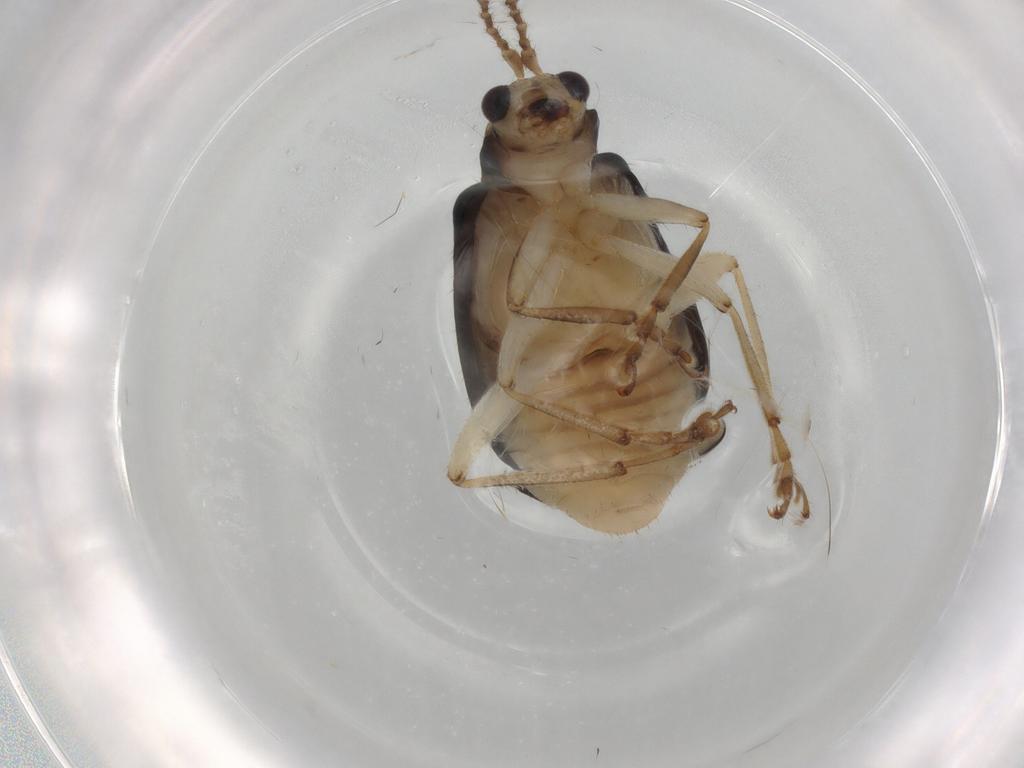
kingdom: Animalia
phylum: Arthropoda
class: Insecta
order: Coleoptera
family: Chrysomelidae
